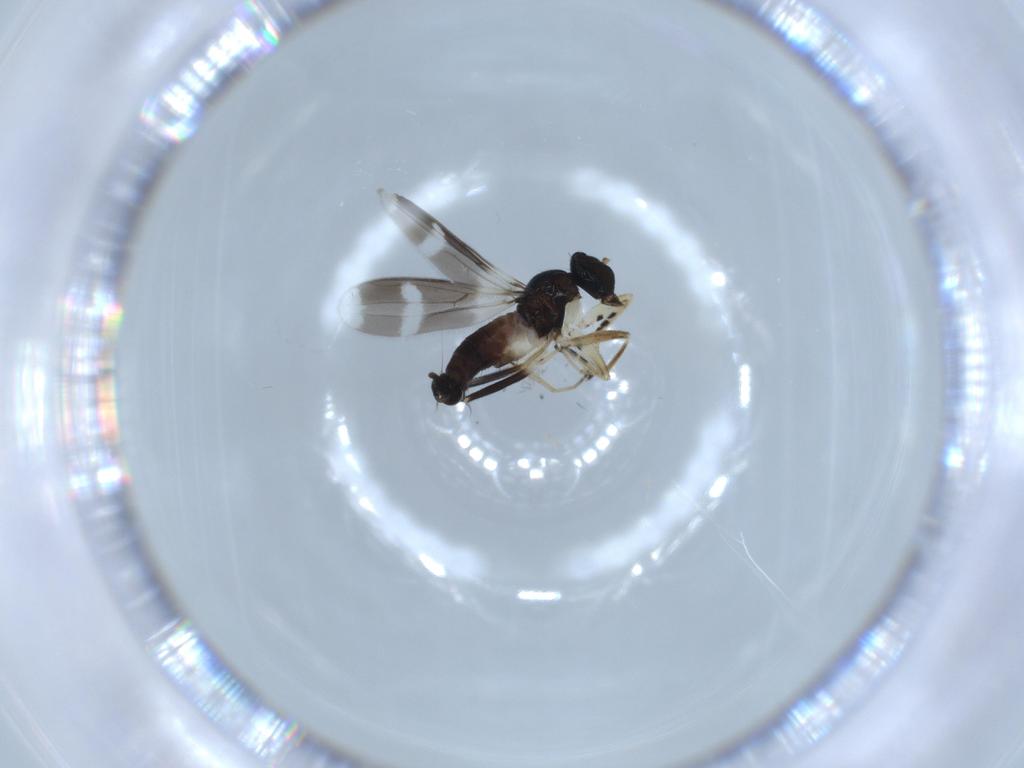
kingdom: Animalia
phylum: Arthropoda
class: Insecta
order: Diptera
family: Hybotidae
